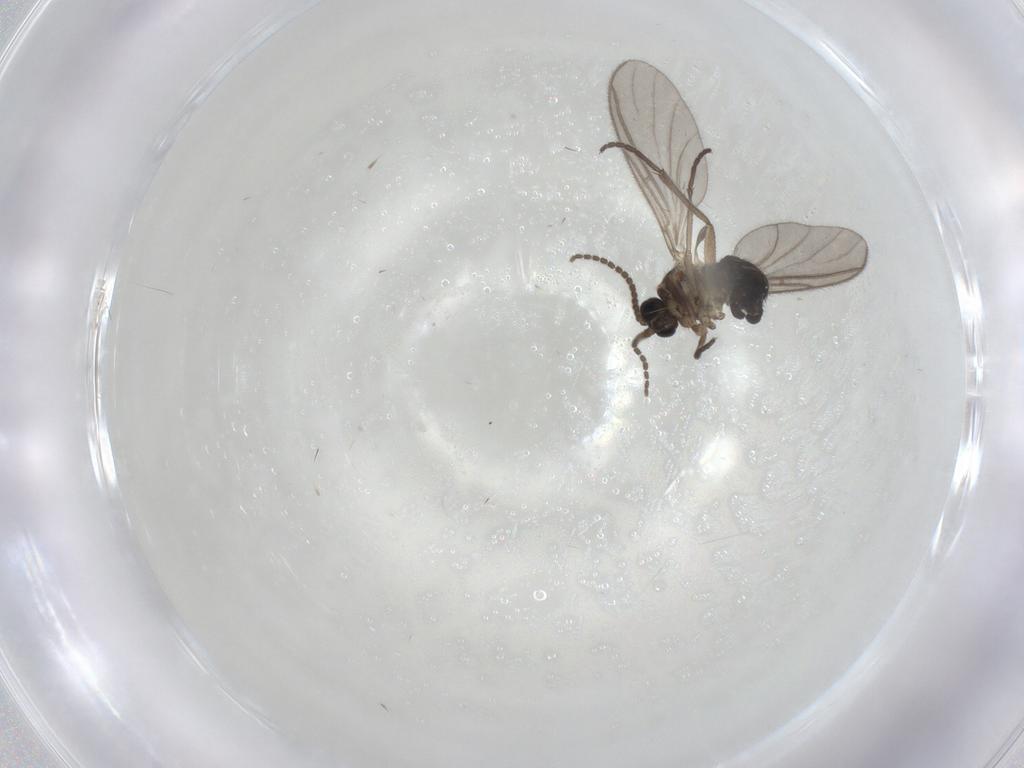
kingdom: Animalia
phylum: Arthropoda
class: Insecta
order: Diptera
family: Sciaridae
